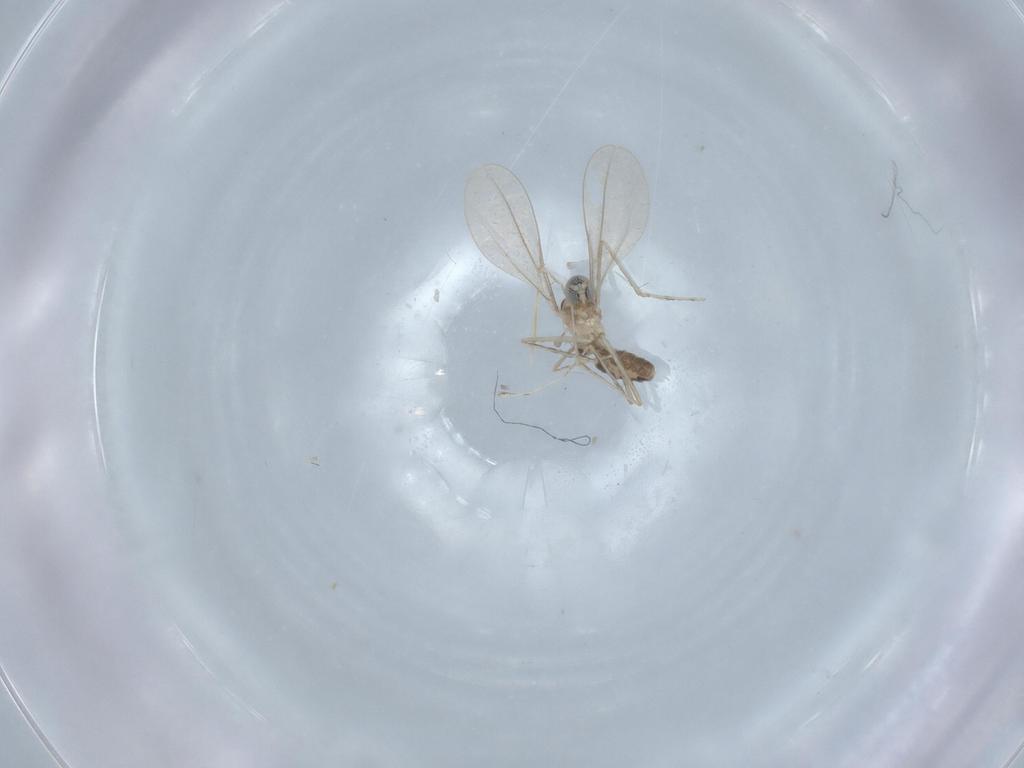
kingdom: Animalia
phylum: Arthropoda
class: Insecta
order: Diptera
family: Cecidomyiidae
